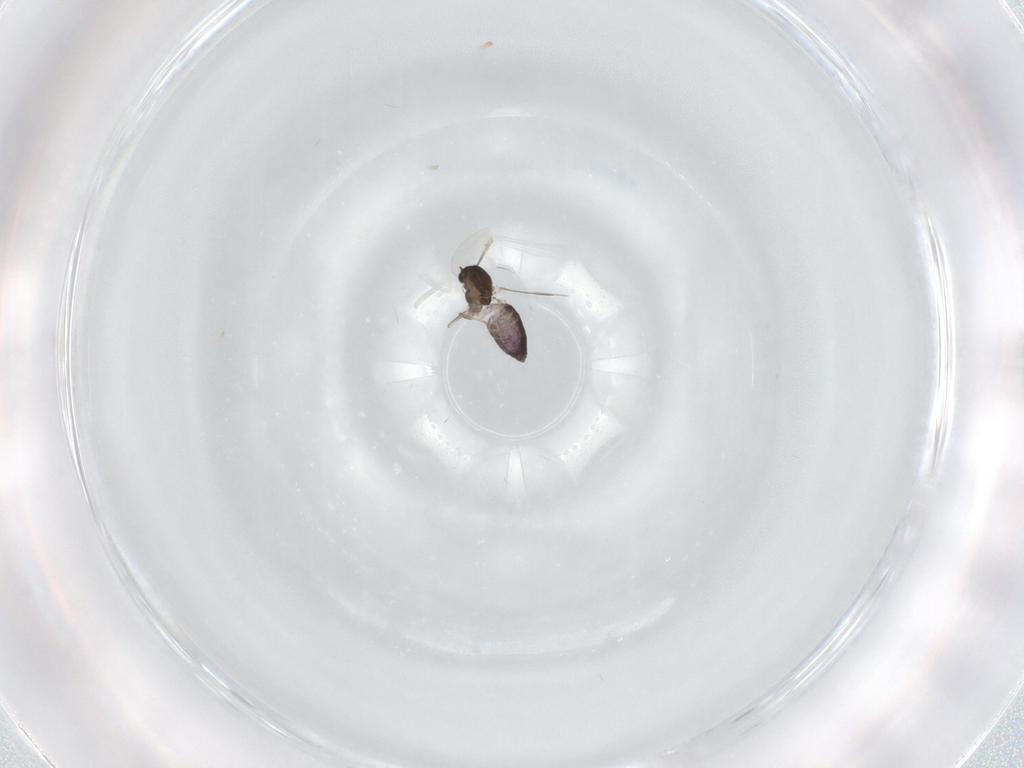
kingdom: Animalia
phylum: Arthropoda
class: Insecta
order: Diptera
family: Chironomidae
